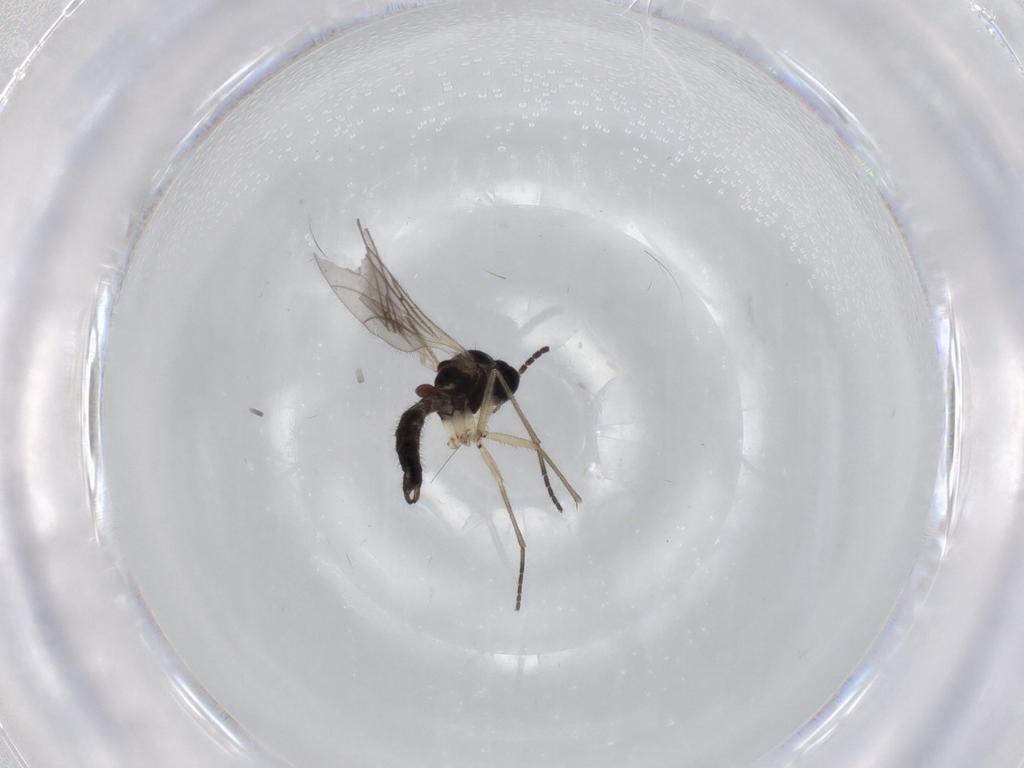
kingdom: Animalia
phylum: Arthropoda
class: Insecta
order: Diptera
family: Sciaridae
